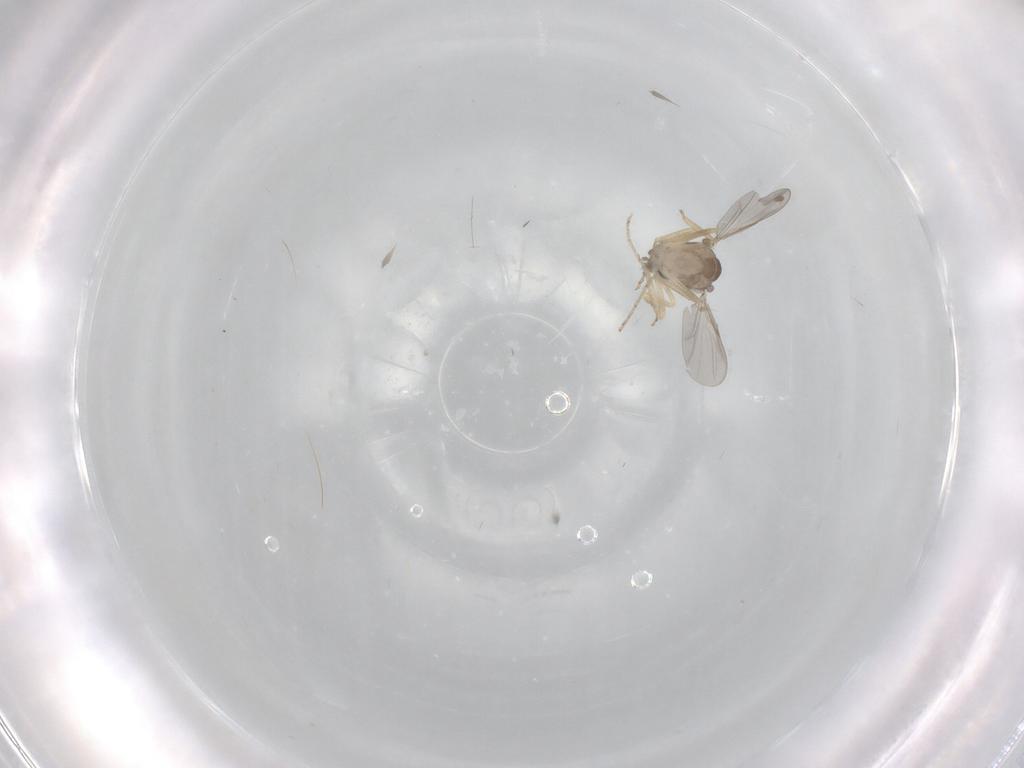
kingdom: Animalia
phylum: Arthropoda
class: Insecta
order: Diptera
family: Ceratopogonidae
